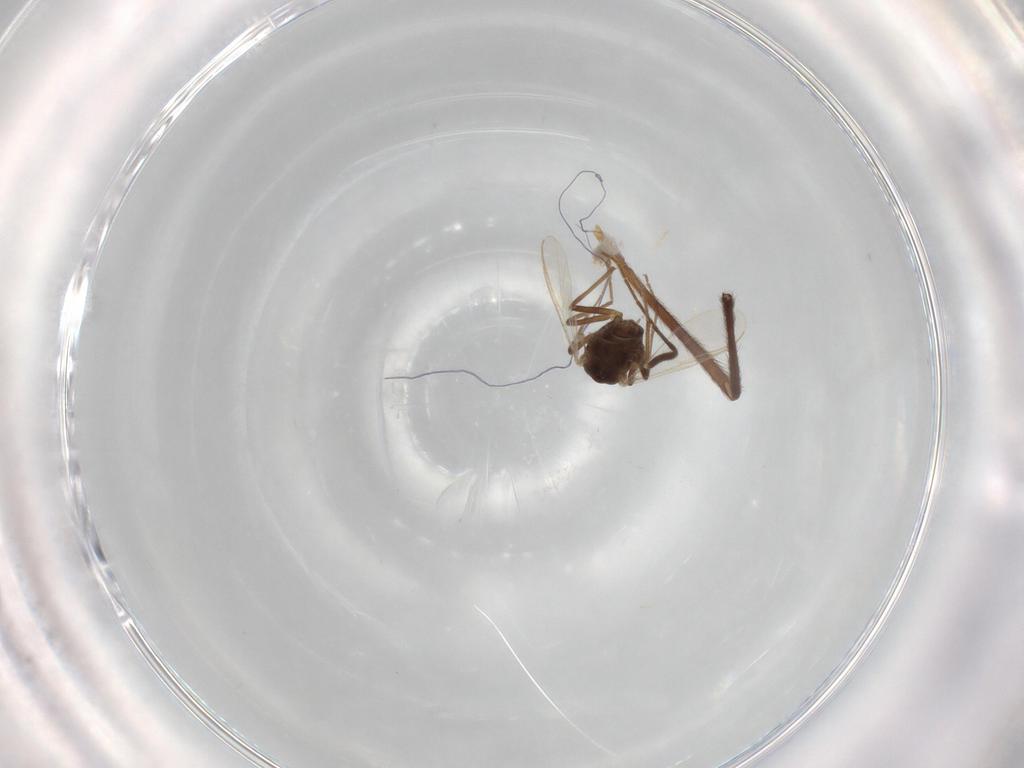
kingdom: Animalia
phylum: Arthropoda
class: Insecta
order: Diptera
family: Chironomidae
